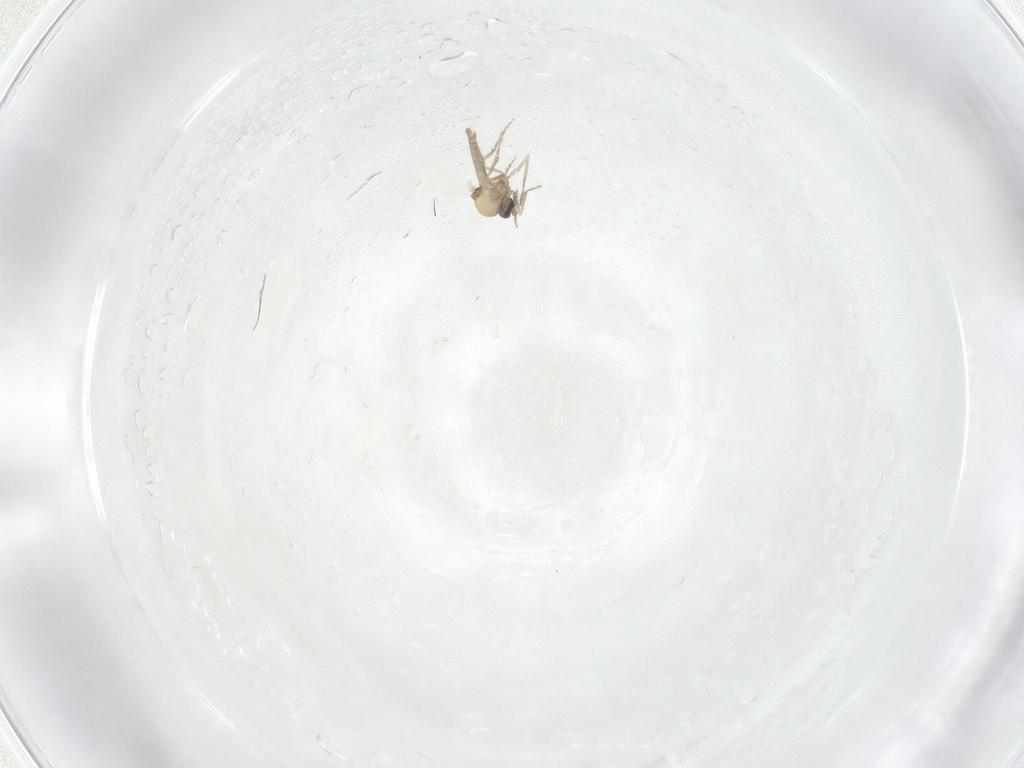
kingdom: Animalia
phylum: Arthropoda
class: Insecta
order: Diptera
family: Ceratopogonidae
